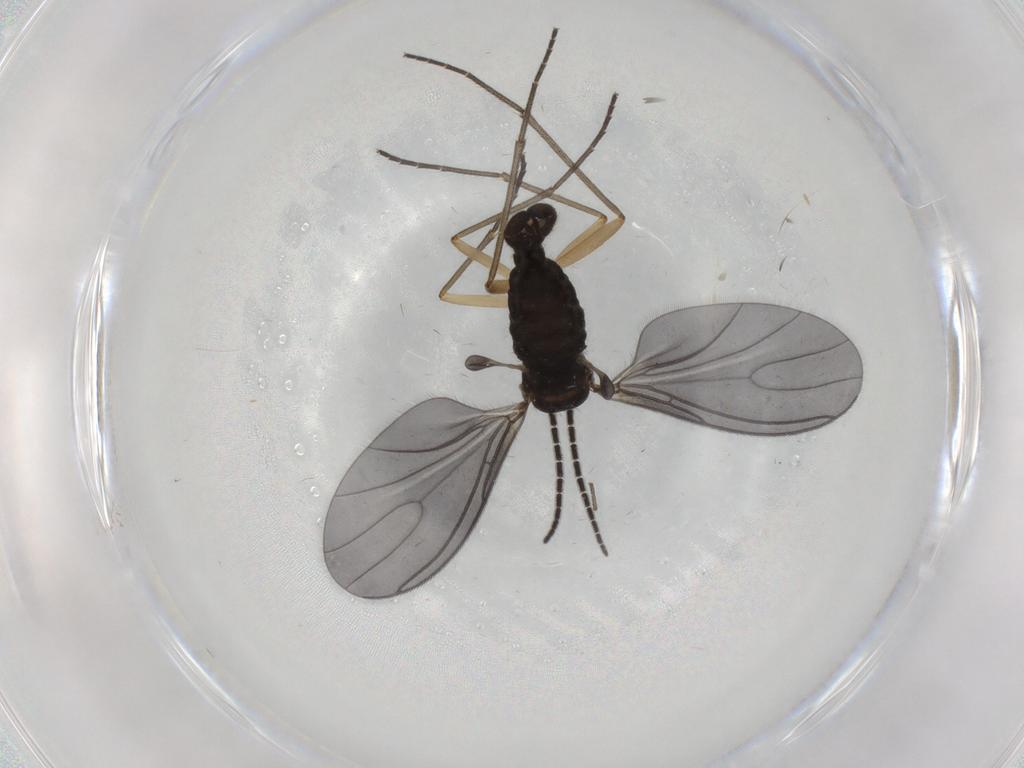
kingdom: Animalia
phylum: Arthropoda
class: Insecta
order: Diptera
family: Sciaridae
